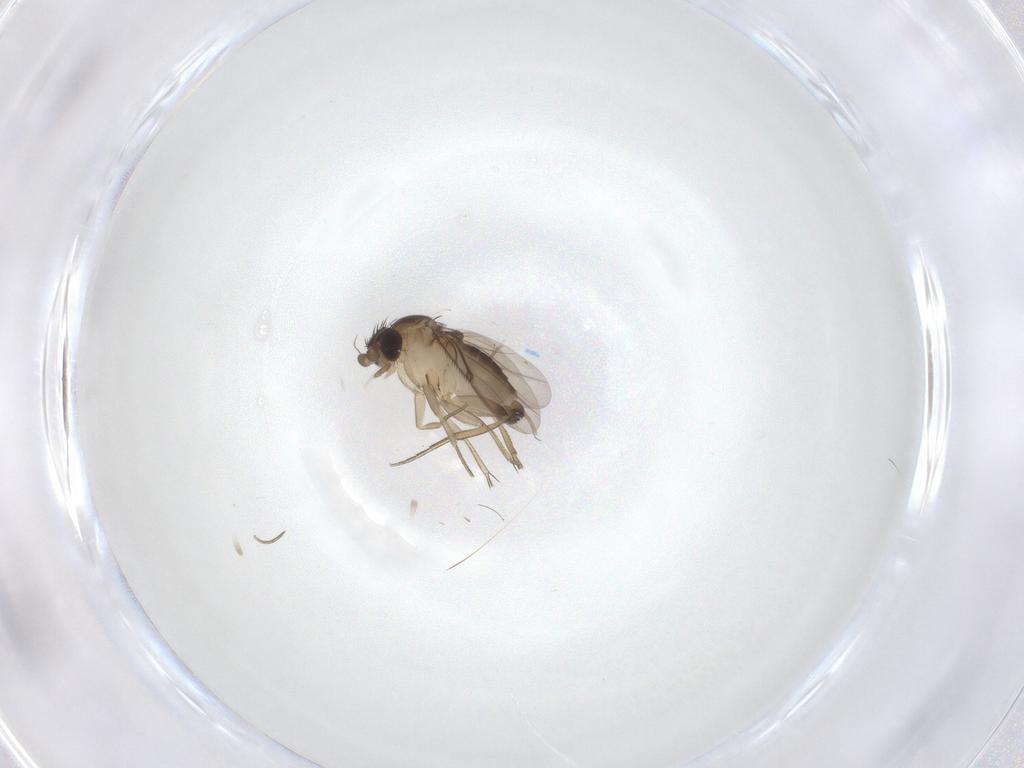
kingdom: Animalia
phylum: Arthropoda
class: Insecta
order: Diptera
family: Phoridae
